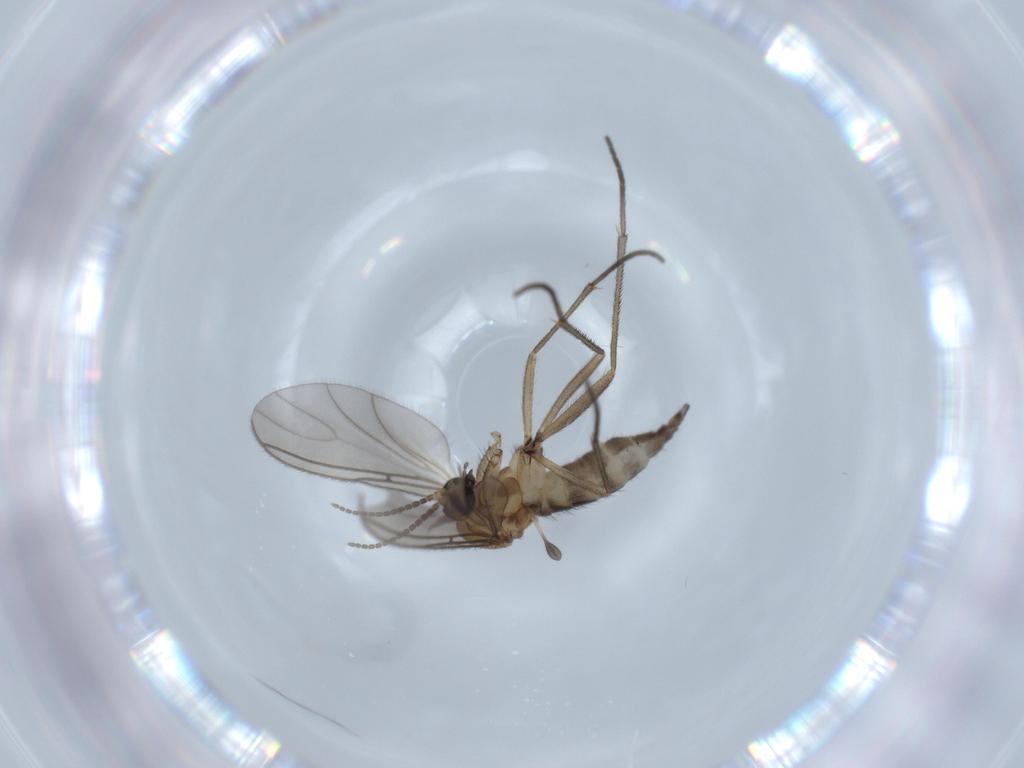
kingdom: Animalia
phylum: Arthropoda
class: Insecta
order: Diptera
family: Sciaridae
